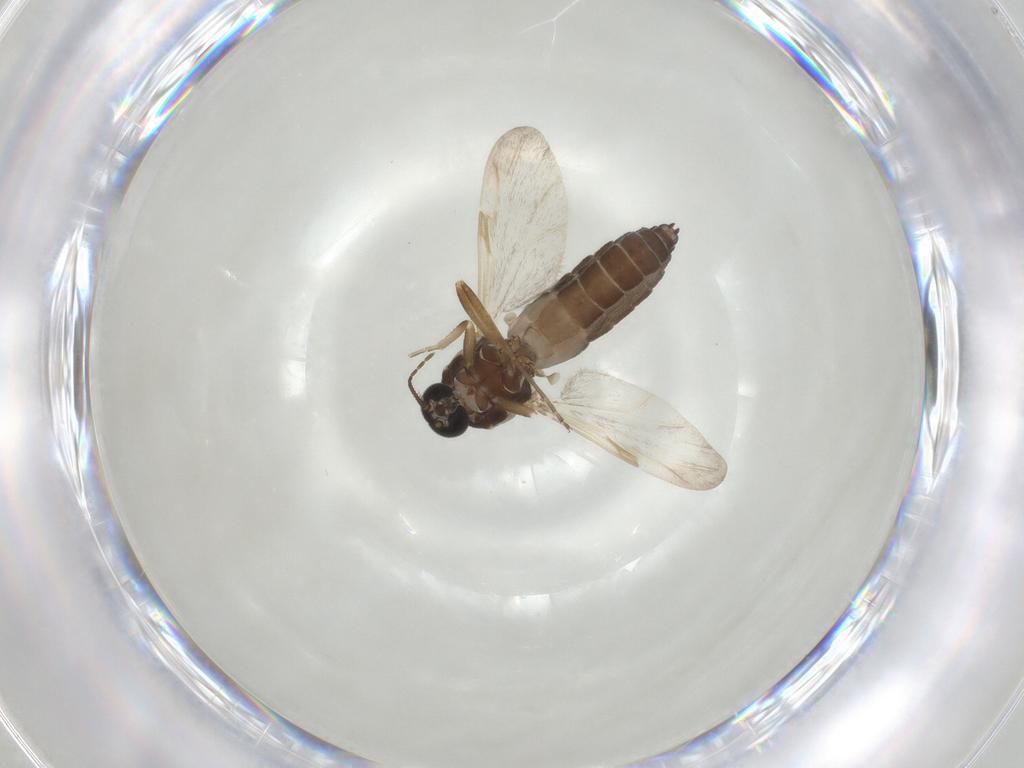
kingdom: Animalia
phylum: Arthropoda
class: Insecta
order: Diptera
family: Ceratopogonidae
